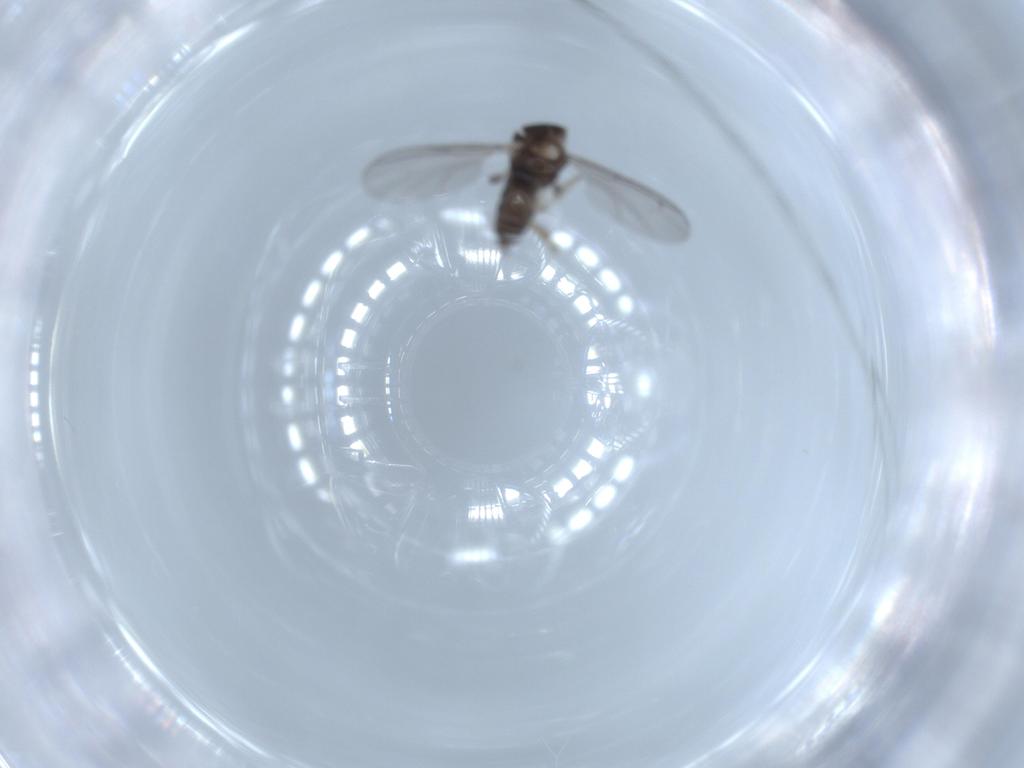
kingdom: Animalia
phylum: Arthropoda
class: Insecta
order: Diptera
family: Sciaridae
